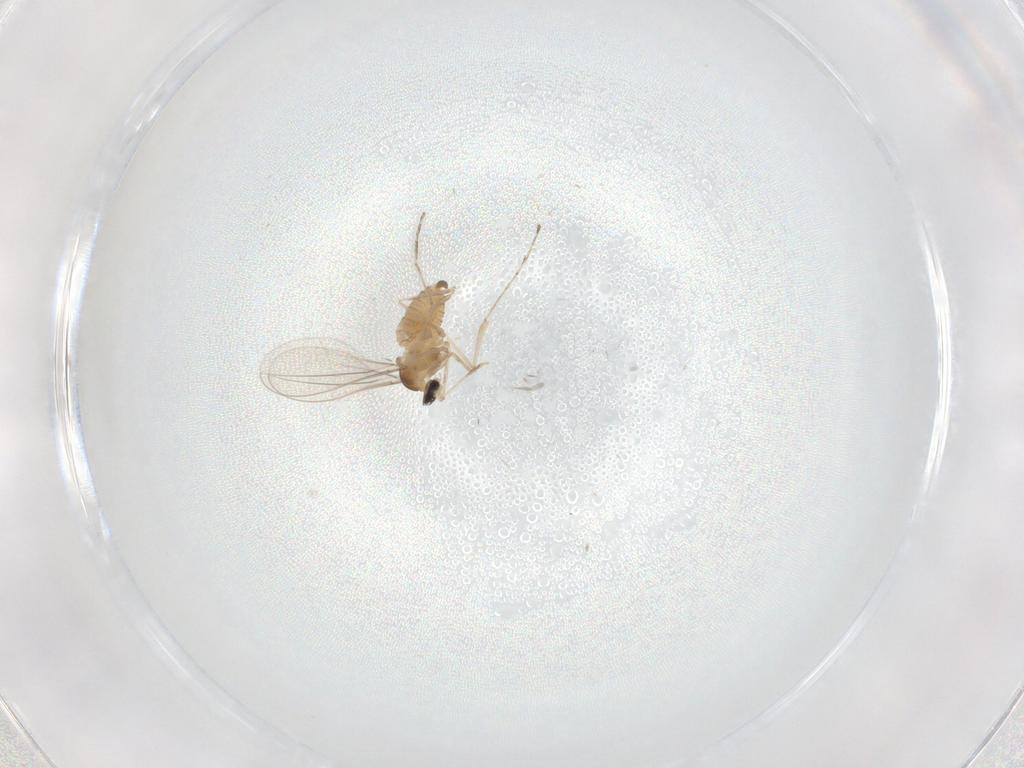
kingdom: Animalia
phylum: Arthropoda
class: Insecta
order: Diptera
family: Cecidomyiidae
